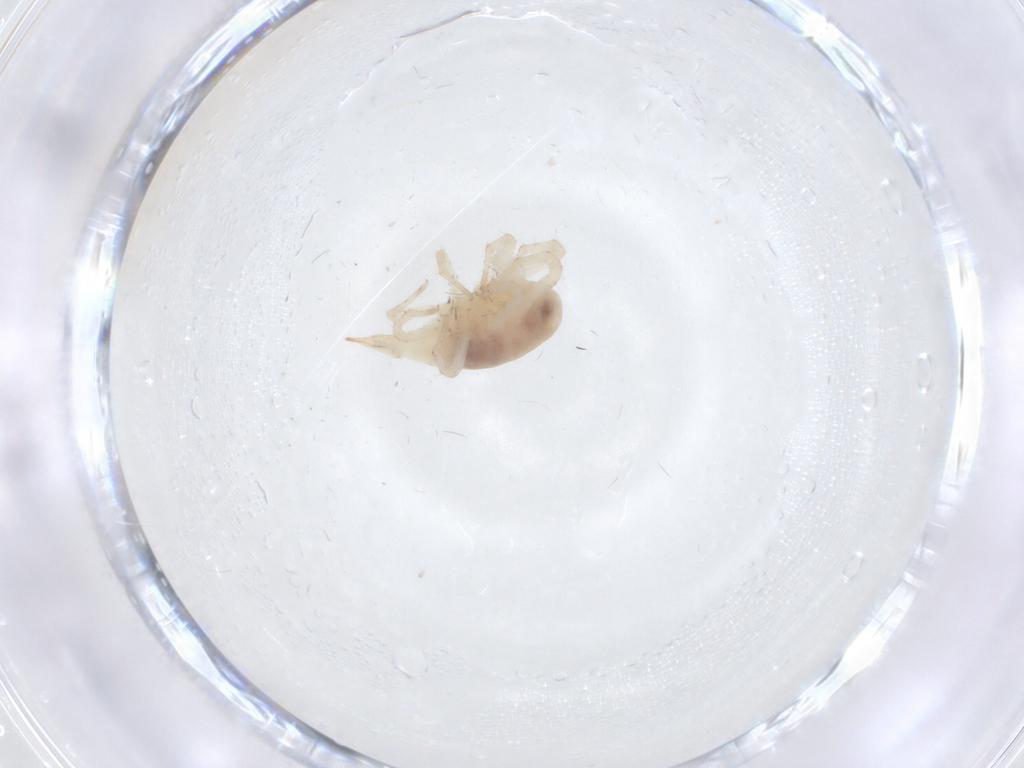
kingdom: Animalia
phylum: Arthropoda
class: Arachnida
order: Trombidiformes
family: Bdellidae
